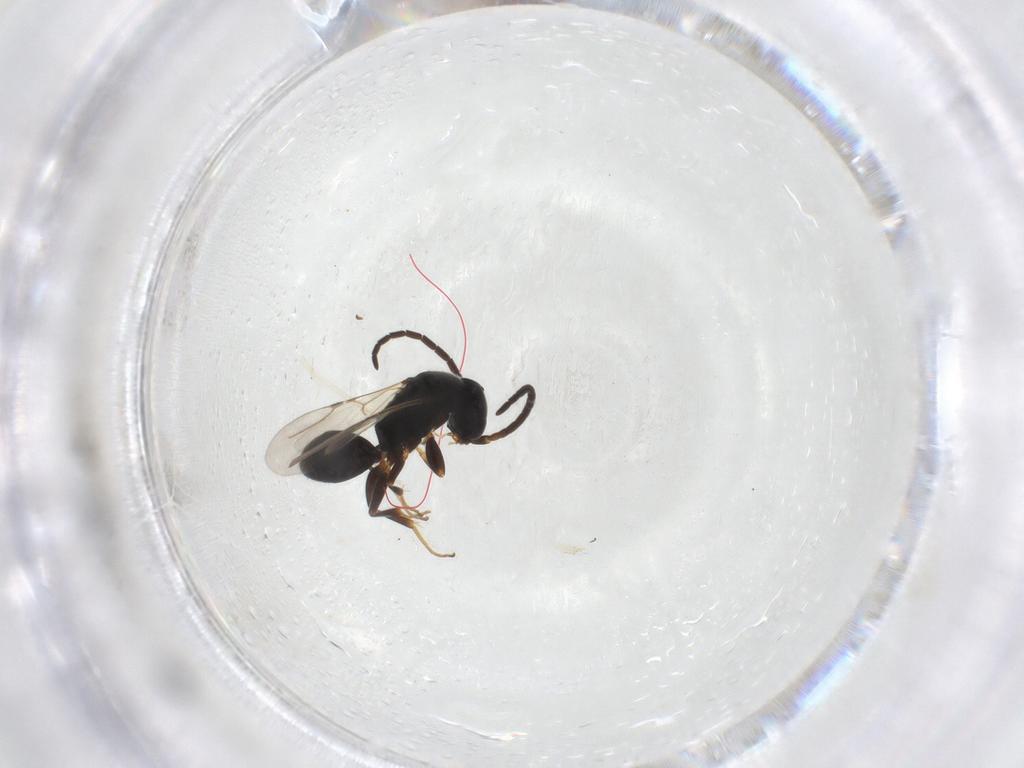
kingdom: Animalia
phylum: Arthropoda
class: Insecta
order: Hymenoptera
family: Bethylidae
